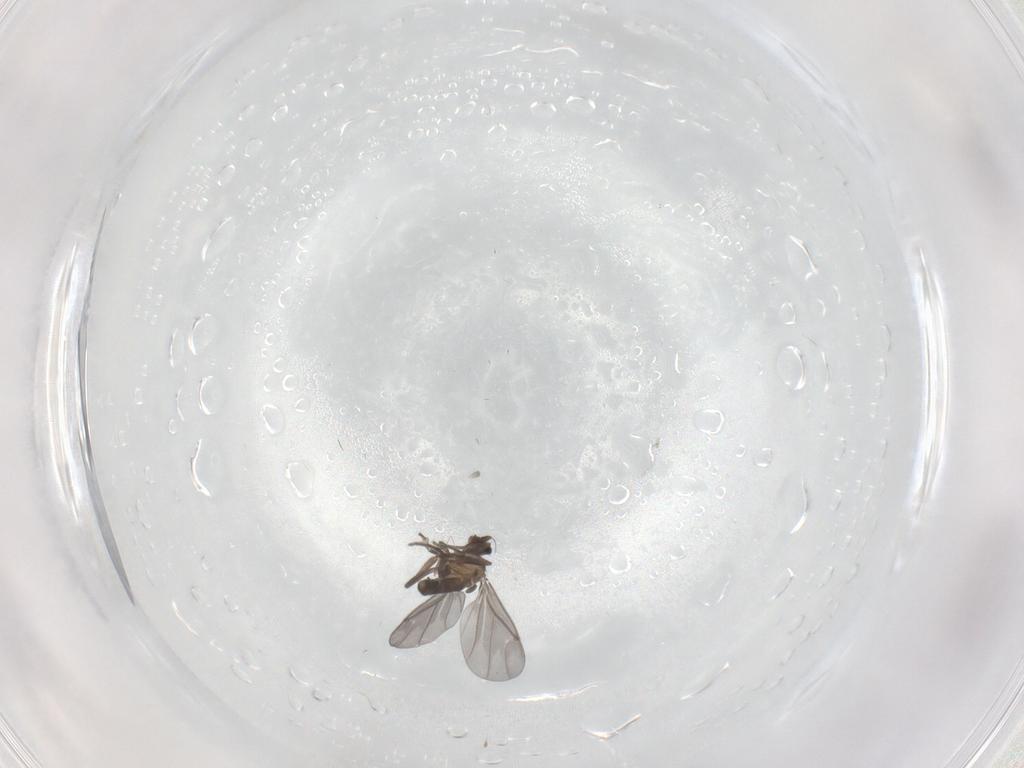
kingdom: Animalia
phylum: Arthropoda
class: Insecta
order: Diptera
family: Phoridae
